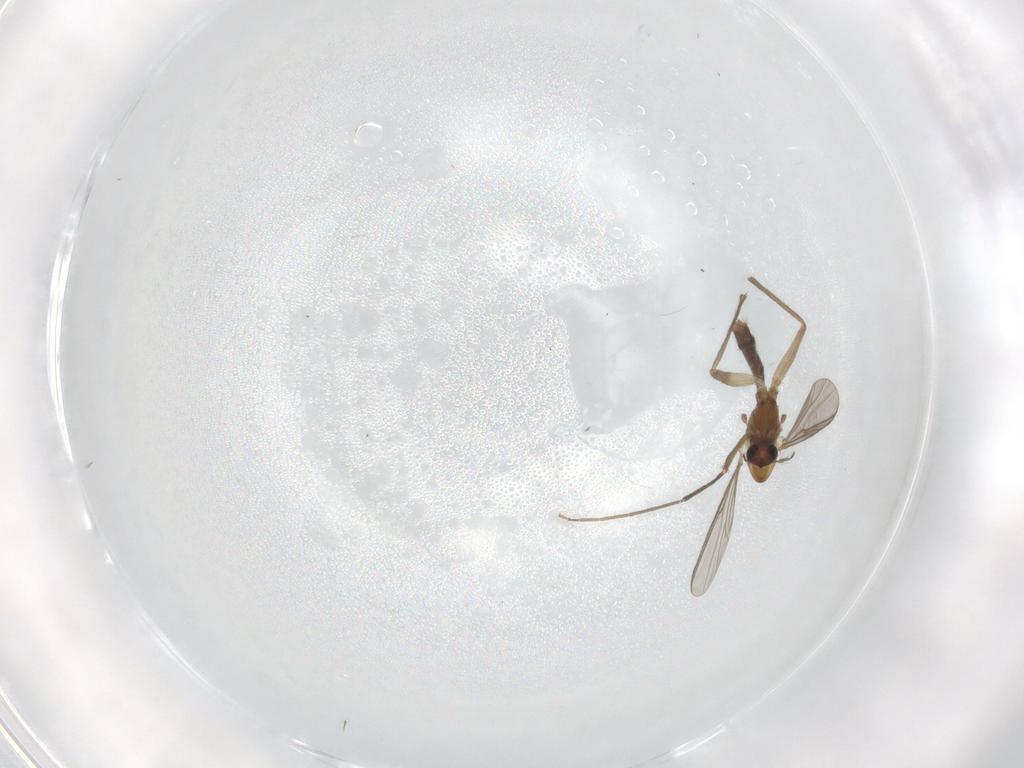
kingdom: Animalia
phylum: Arthropoda
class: Insecta
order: Diptera
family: Chironomidae
